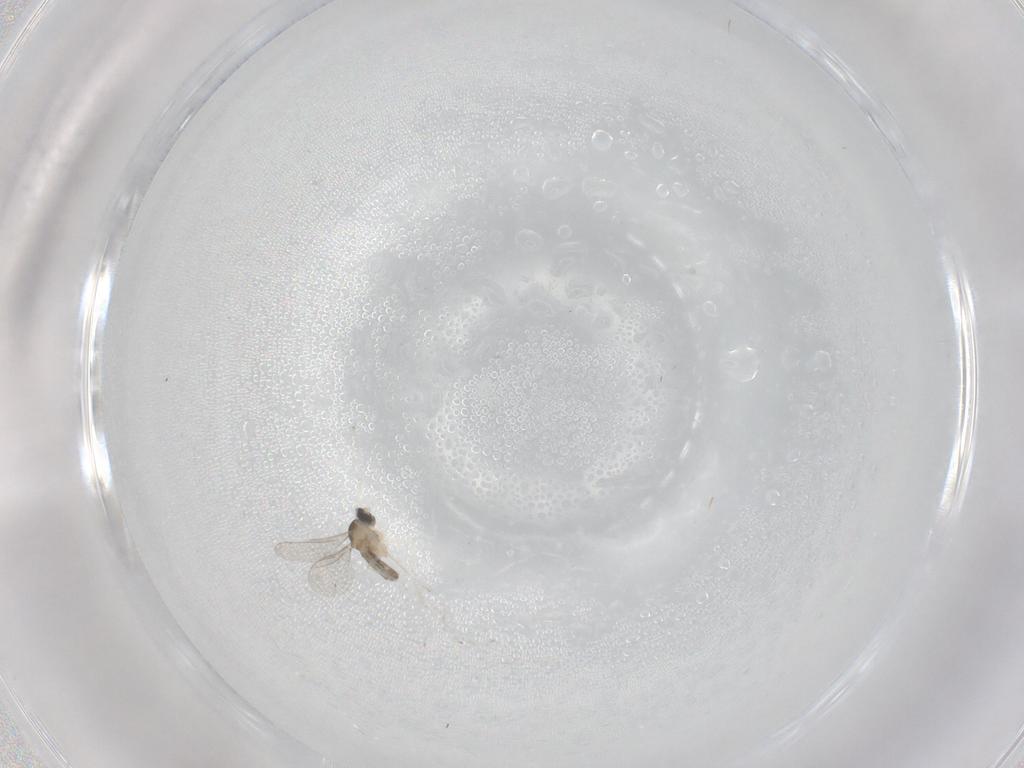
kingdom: Animalia
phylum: Arthropoda
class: Insecta
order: Diptera
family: Cecidomyiidae
